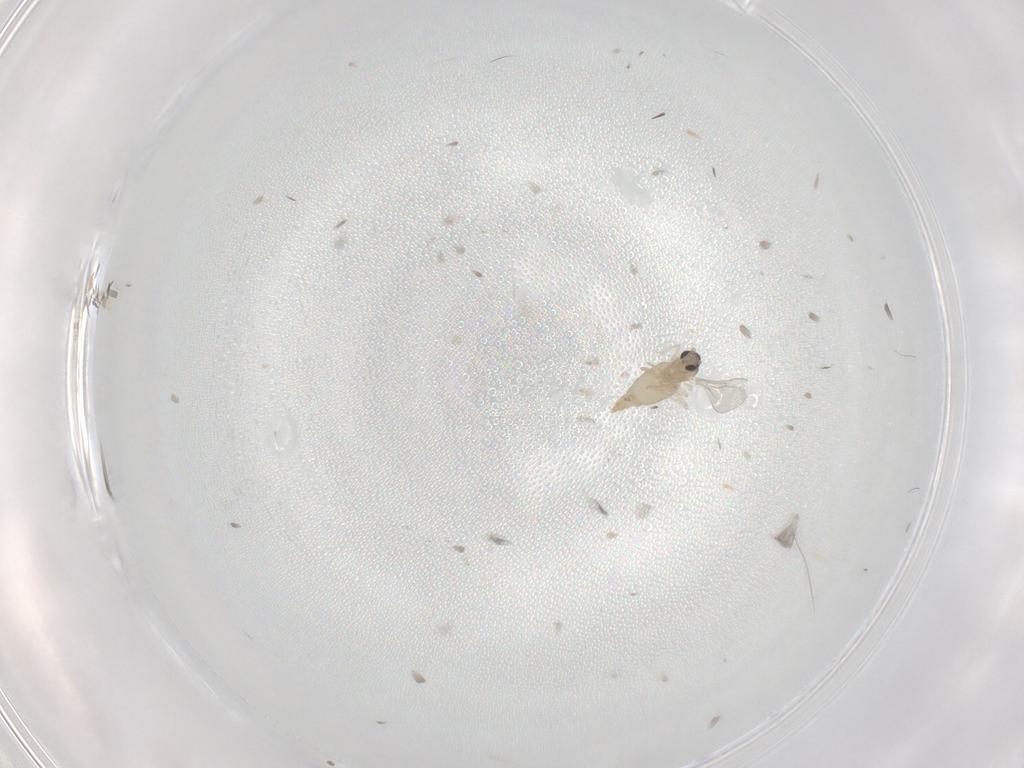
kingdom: Animalia
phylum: Arthropoda
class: Insecta
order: Diptera
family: Cecidomyiidae
